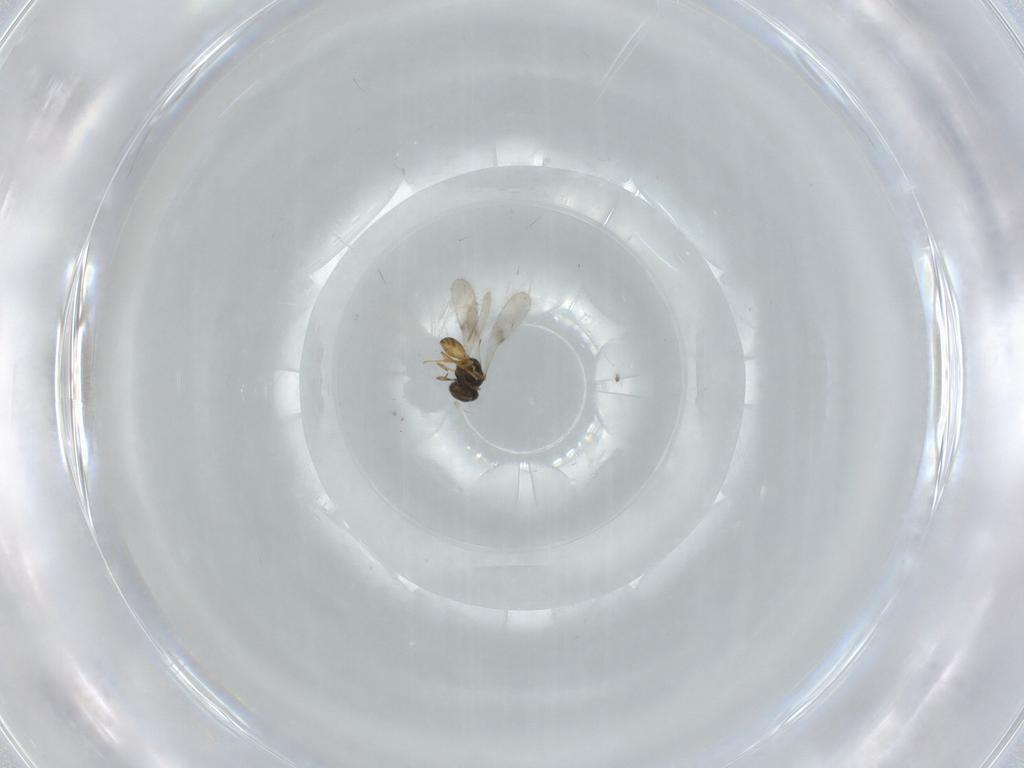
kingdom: Animalia
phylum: Arthropoda
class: Insecta
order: Hymenoptera
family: Scelionidae
